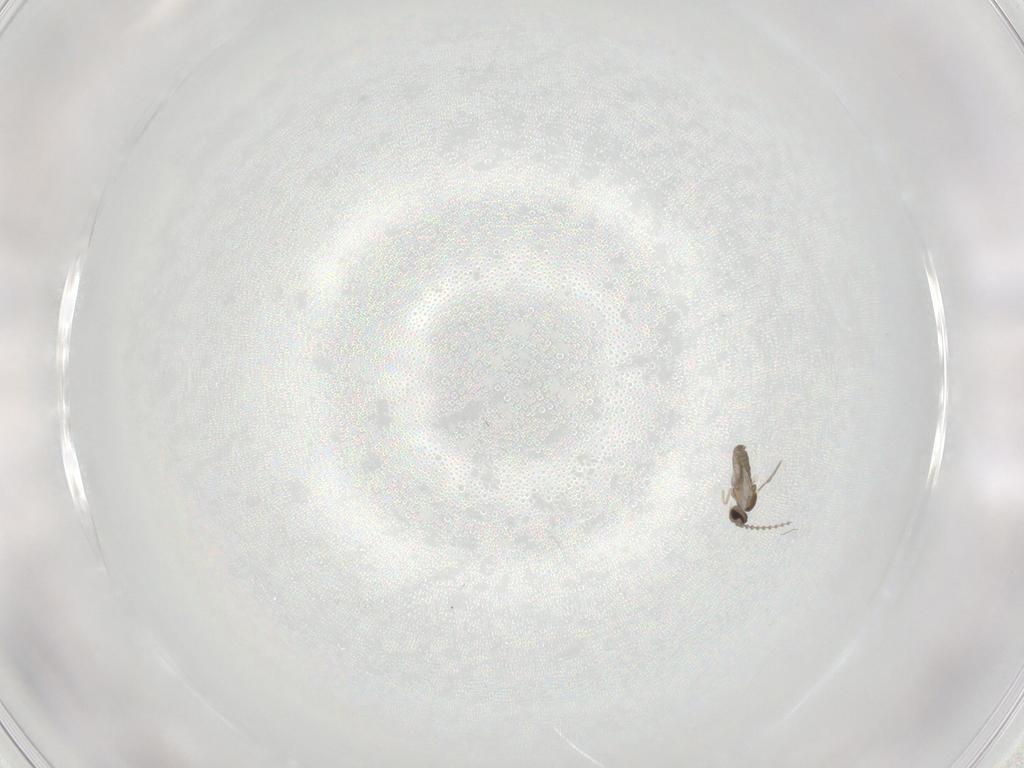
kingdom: Animalia
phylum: Arthropoda
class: Insecta
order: Diptera
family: Cecidomyiidae
